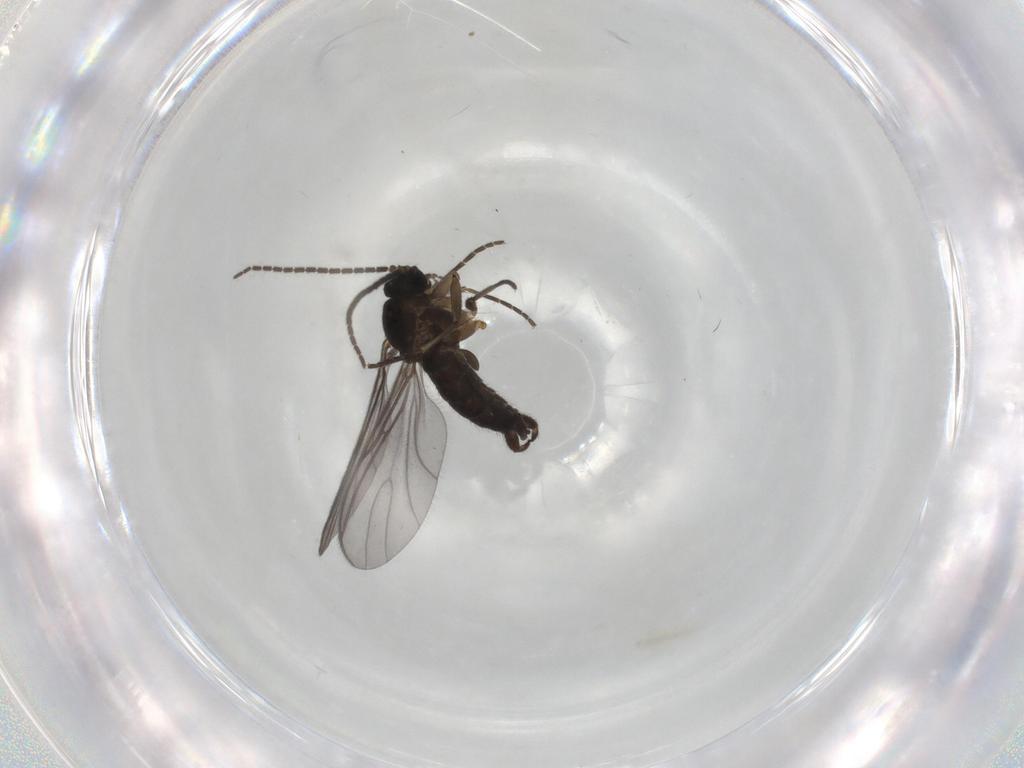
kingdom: Animalia
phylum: Arthropoda
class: Insecta
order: Diptera
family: Sciaridae
